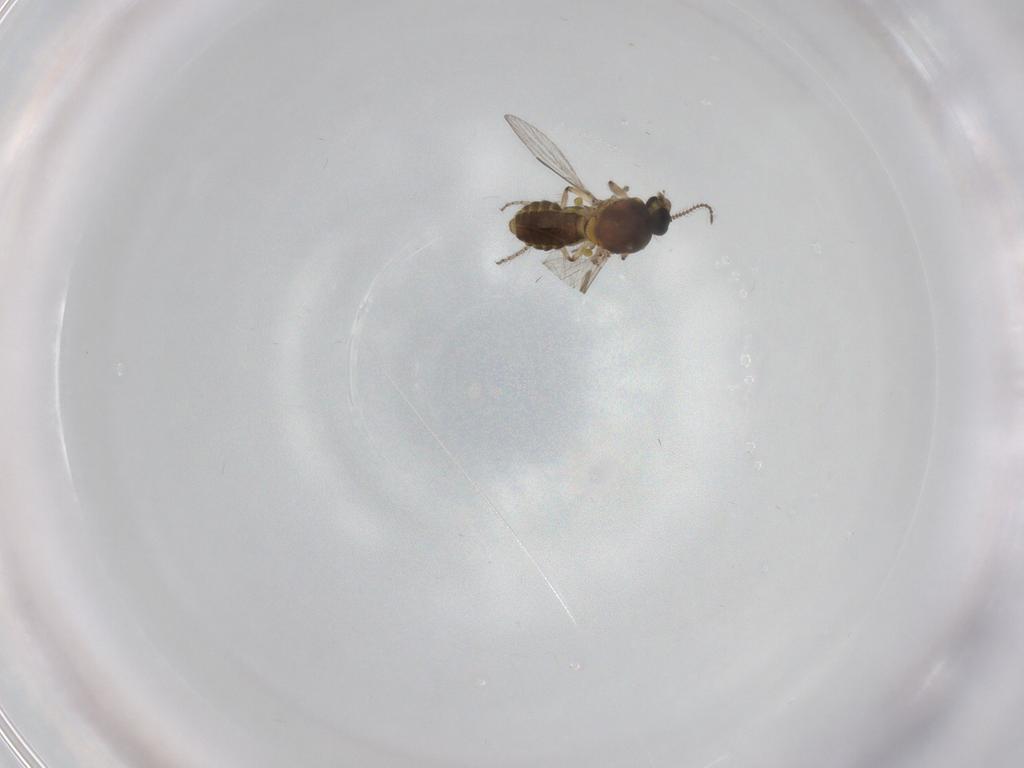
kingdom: Animalia
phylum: Arthropoda
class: Insecta
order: Diptera
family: Ceratopogonidae
